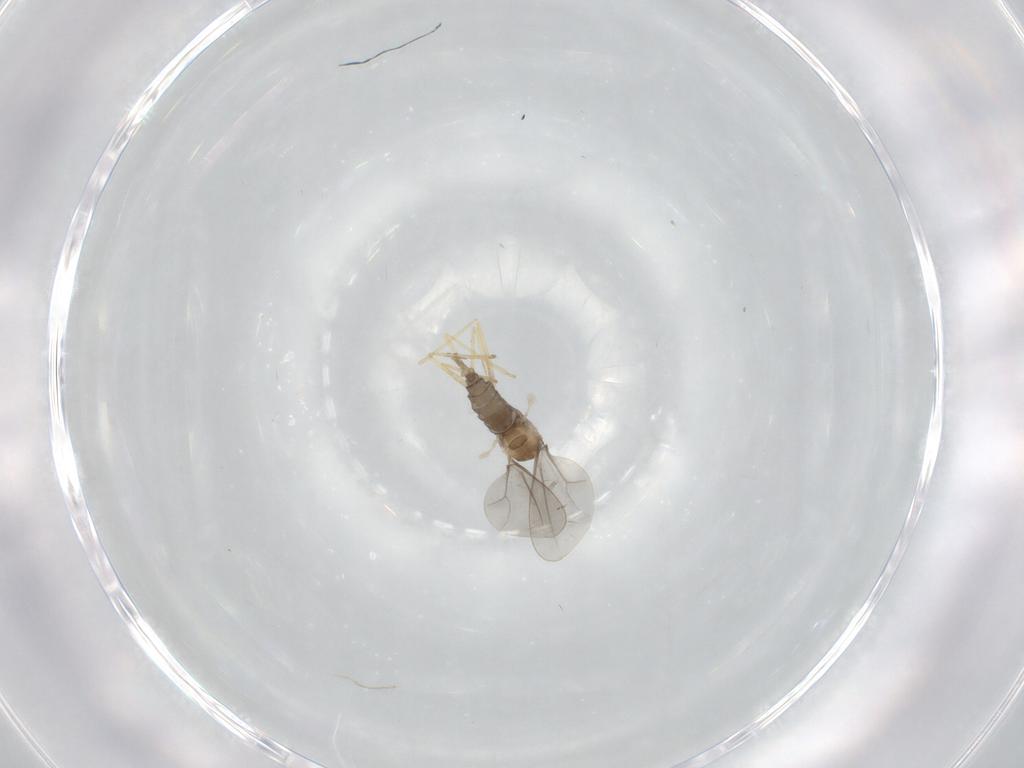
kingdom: Animalia
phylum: Arthropoda
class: Insecta
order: Diptera
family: Cecidomyiidae
